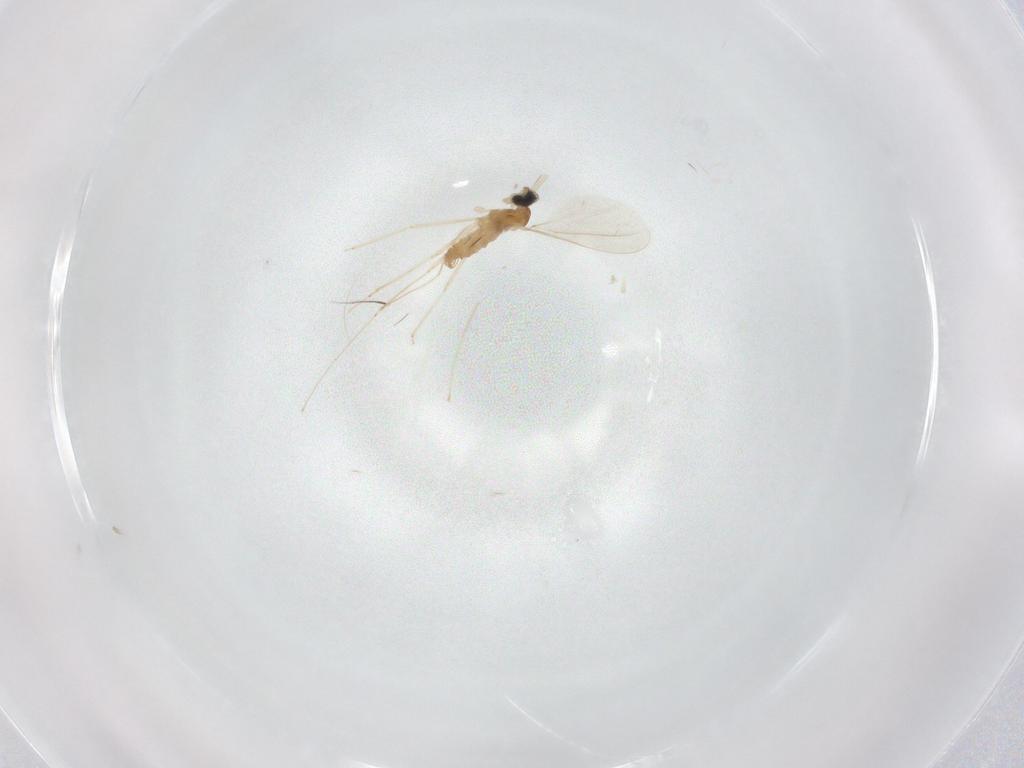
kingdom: Animalia
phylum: Arthropoda
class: Insecta
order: Diptera
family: Cecidomyiidae
